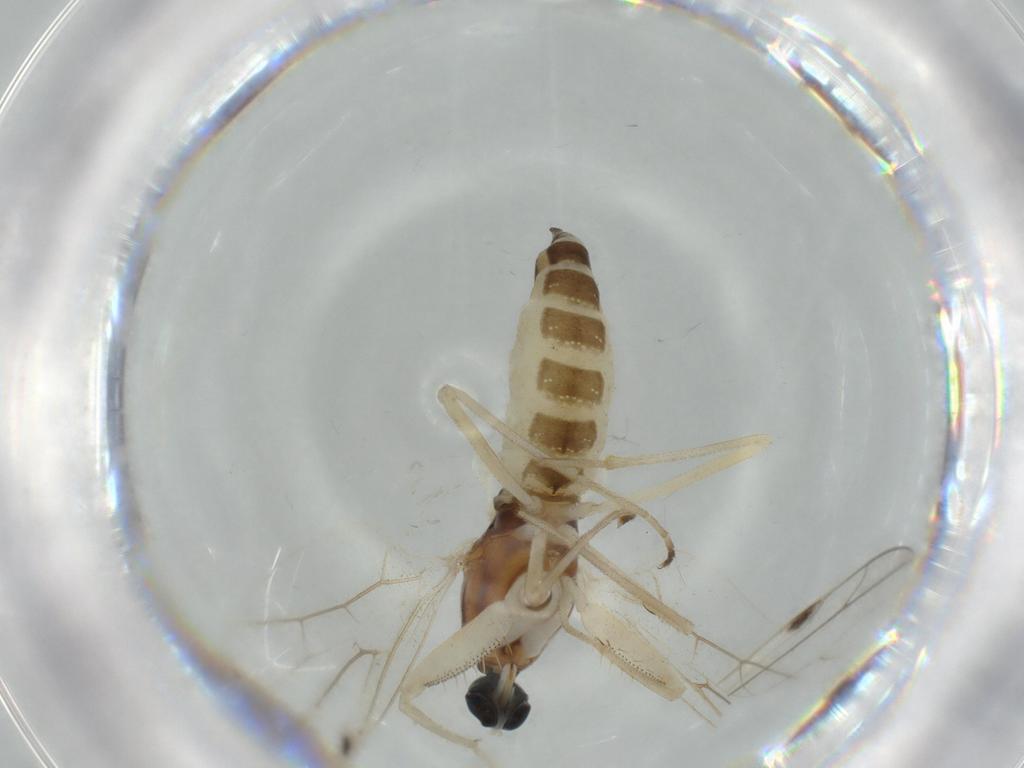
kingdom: Animalia
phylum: Arthropoda
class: Insecta
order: Diptera
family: Empididae
